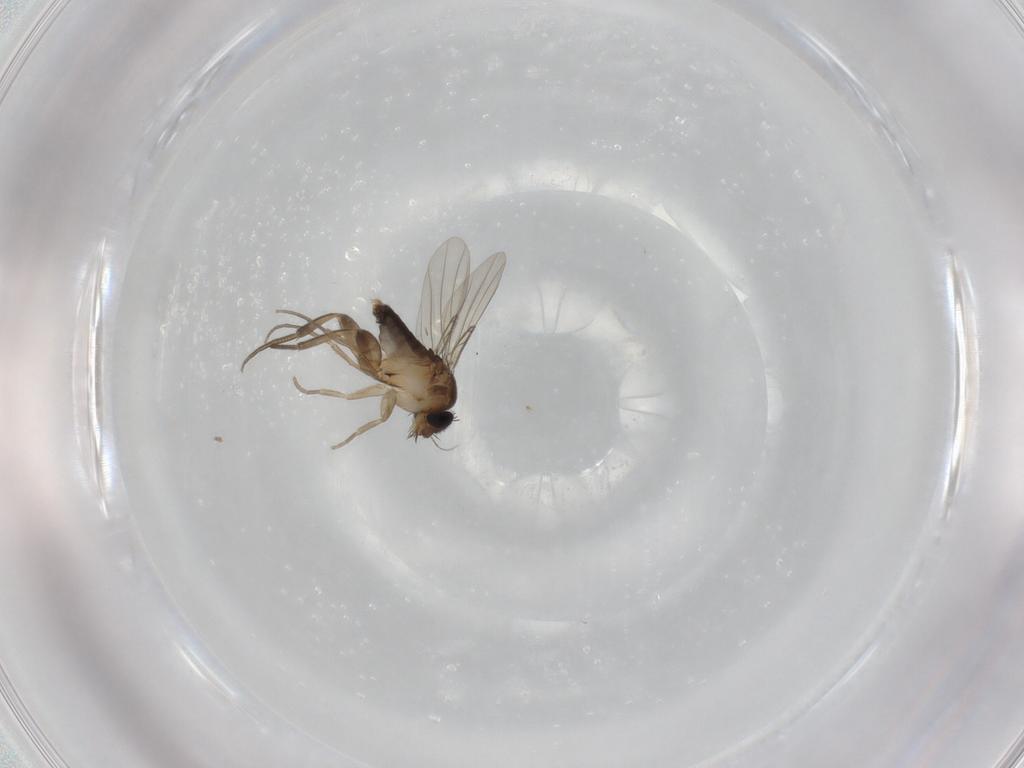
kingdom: Animalia
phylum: Arthropoda
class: Insecta
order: Diptera
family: Phoridae
